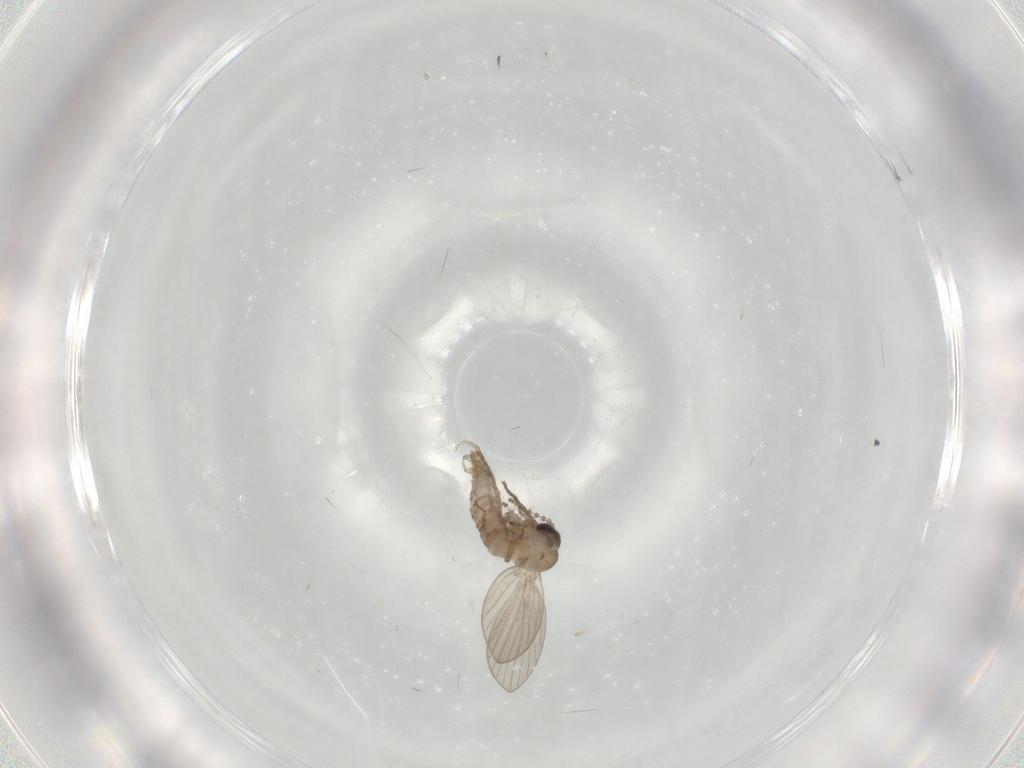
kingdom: Animalia
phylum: Arthropoda
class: Insecta
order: Diptera
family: Psychodidae
